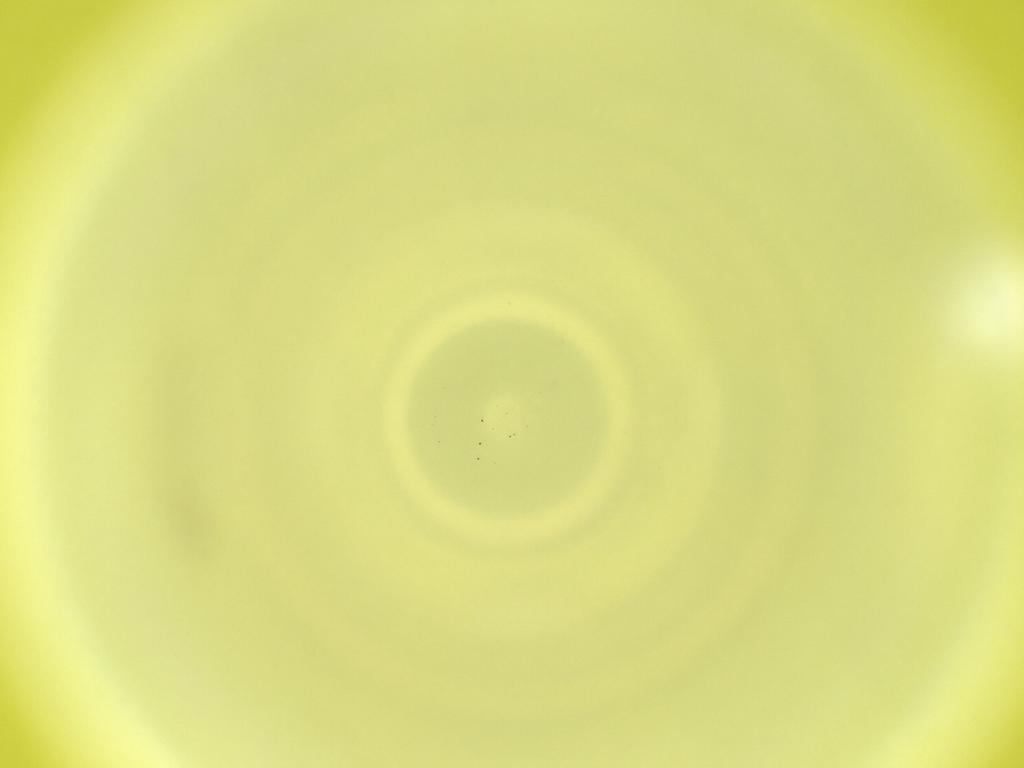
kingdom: Animalia
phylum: Arthropoda
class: Insecta
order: Diptera
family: Cecidomyiidae
